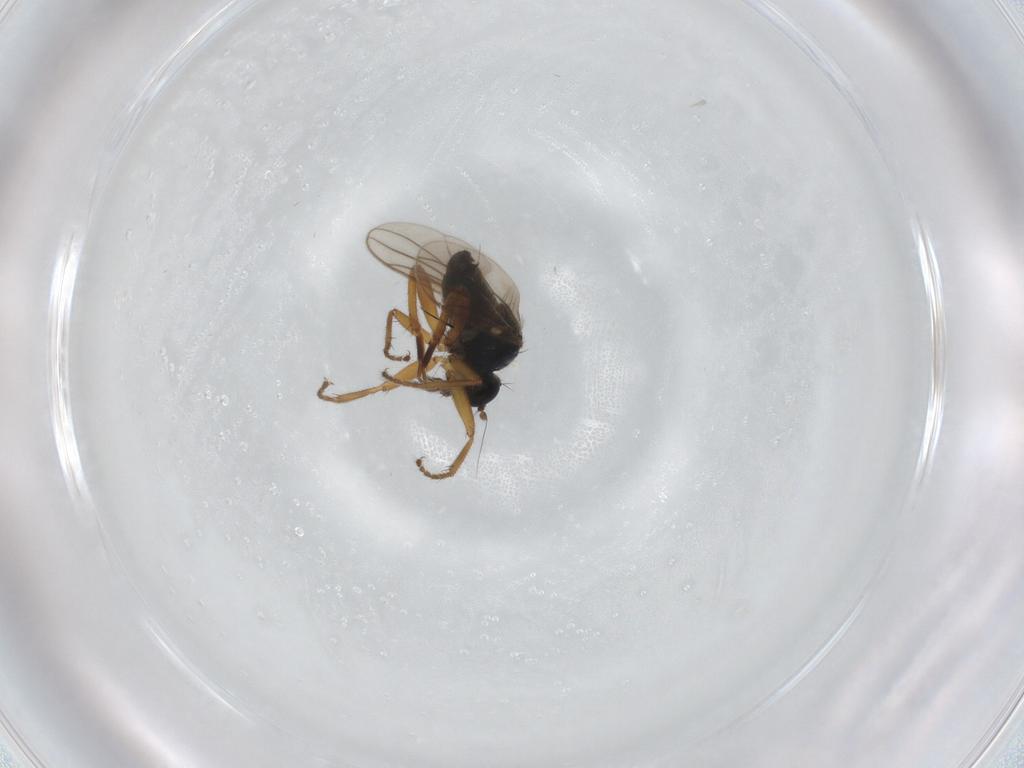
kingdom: Animalia
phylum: Arthropoda
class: Insecta
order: Diptera
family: Hybotidae
